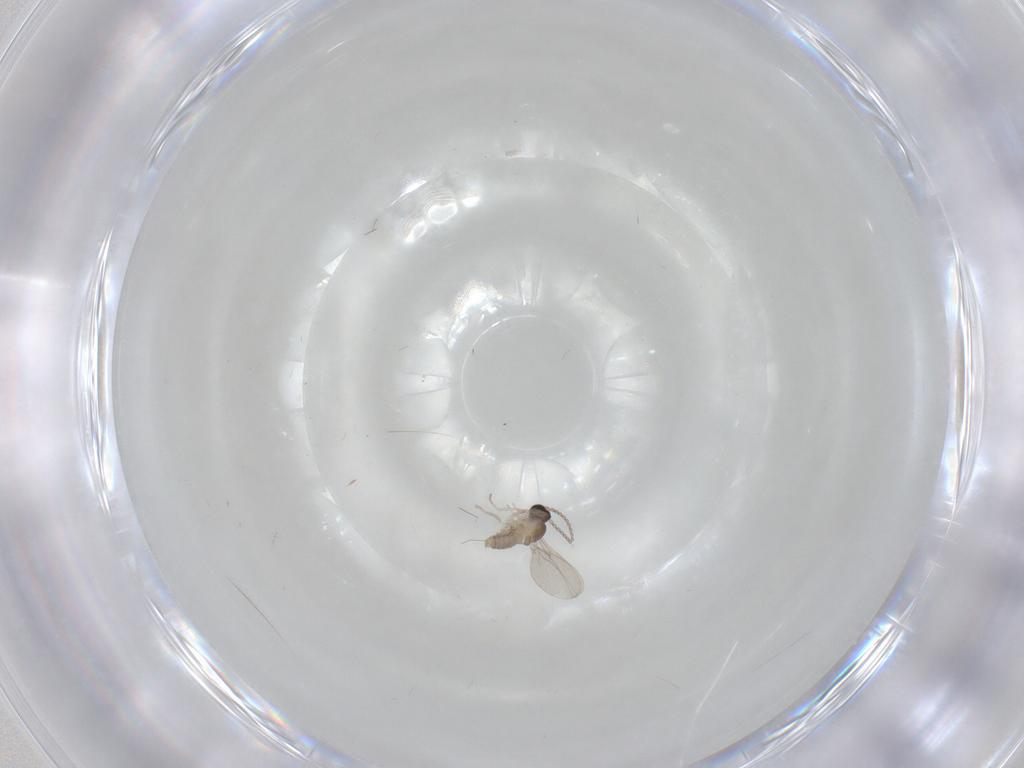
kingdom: Animalia
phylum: Arthropoda
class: Insecta
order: Diptera
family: Cecidomyiidae
